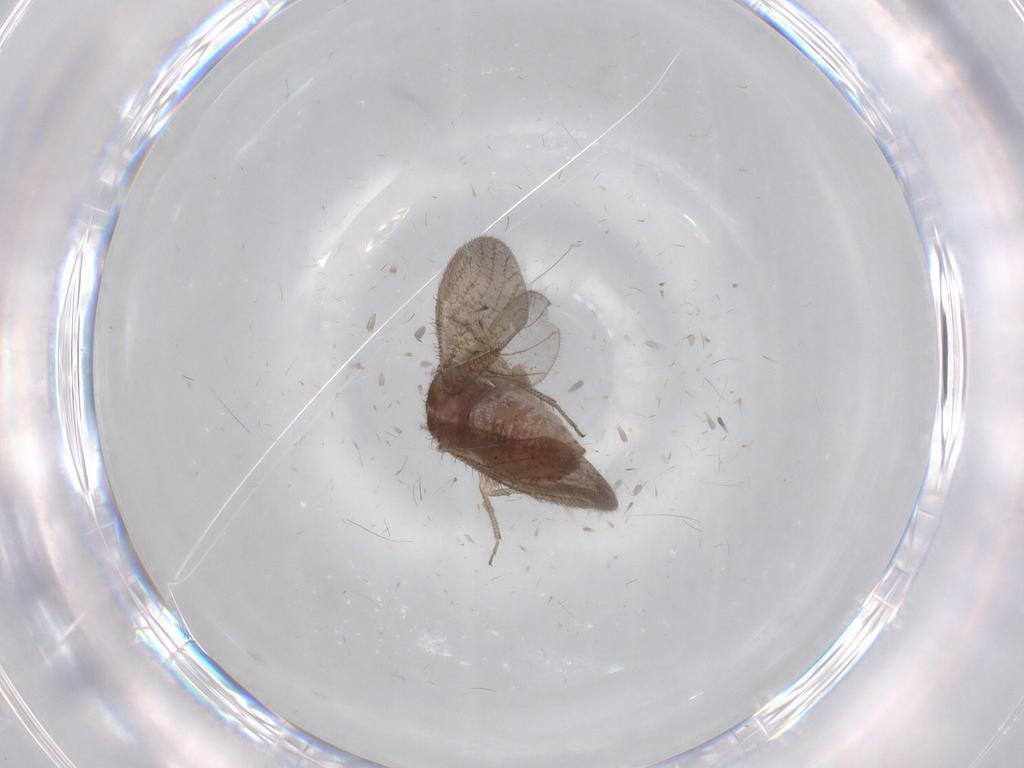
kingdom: Animalia
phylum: Arthropoda
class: Insecta
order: Psocodea
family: Caeciliusidae
